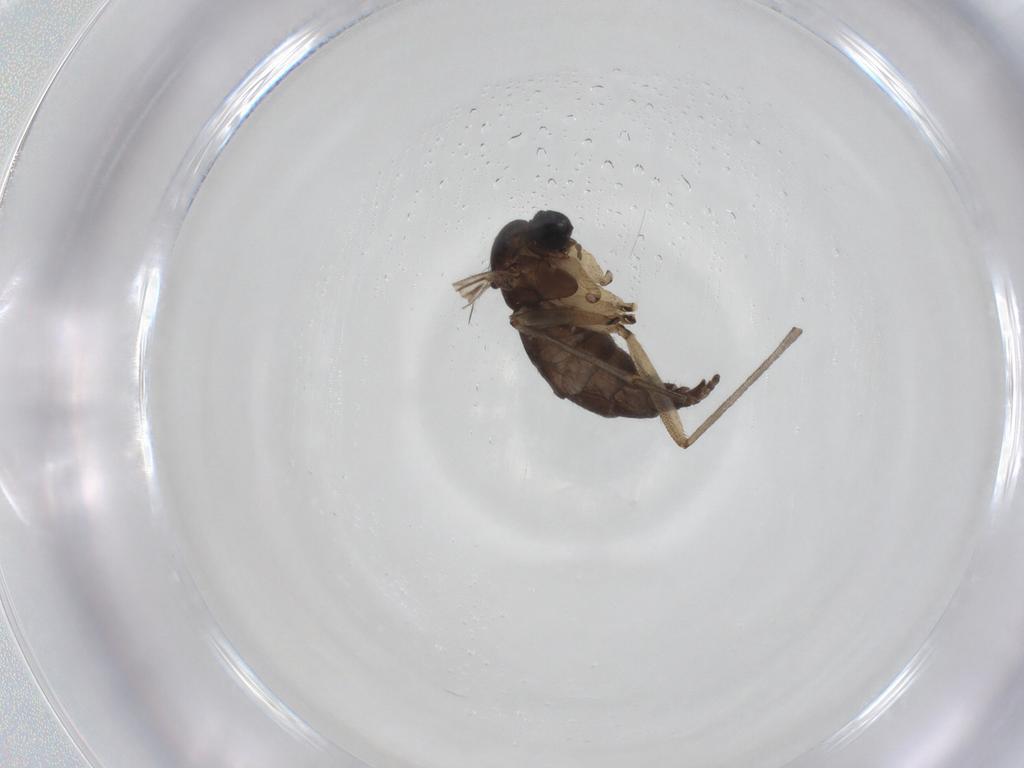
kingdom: Animalia
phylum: Arthropoda
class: Insecta
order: Diptera
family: Sciaridae
